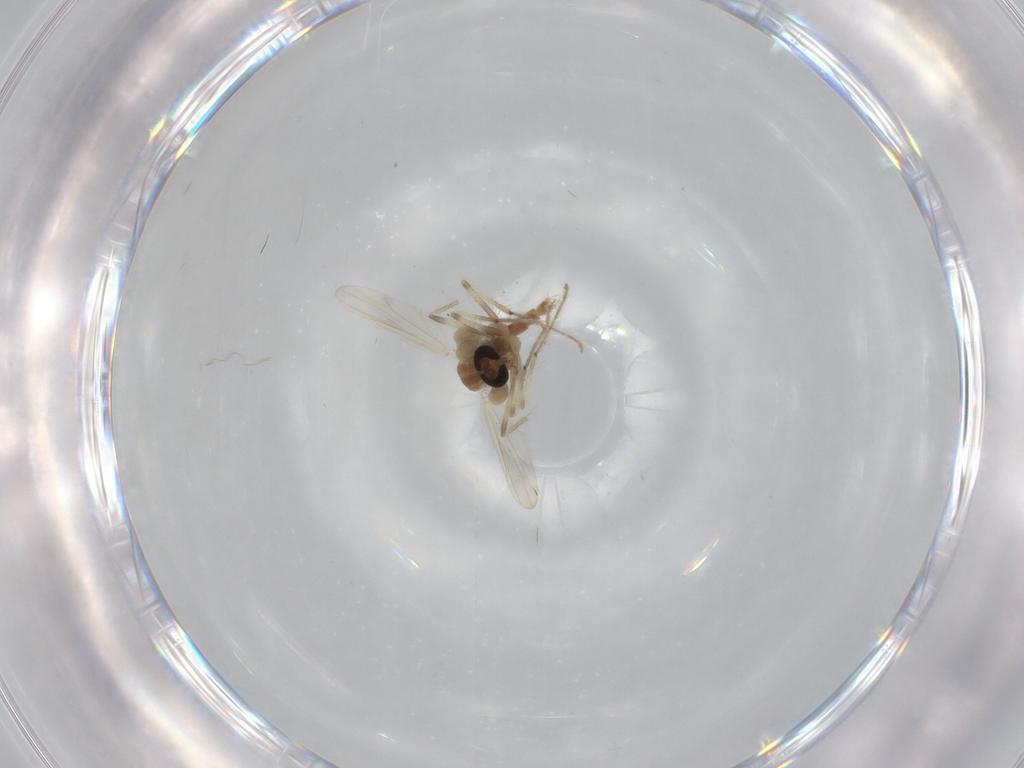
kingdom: Animalia
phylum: Arthropoda
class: Insecta
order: Diptera
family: Chironomidae
